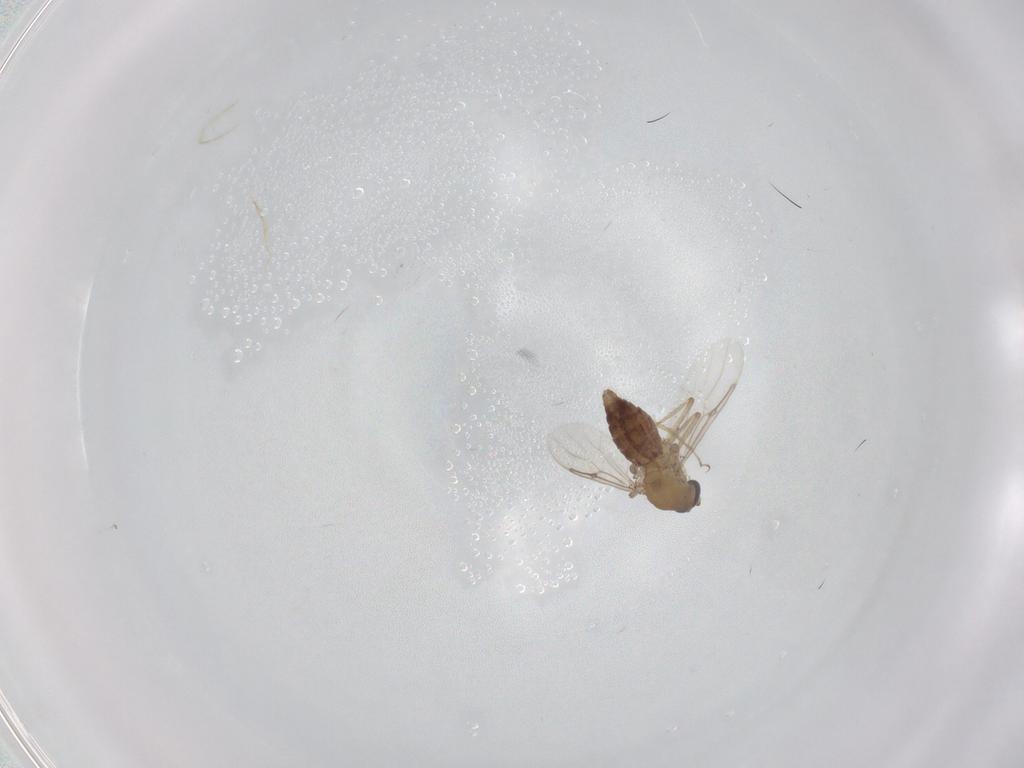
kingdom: Animalia
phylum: Arthropoda
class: Insecta
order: Diptera
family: Ceratopogonidae
